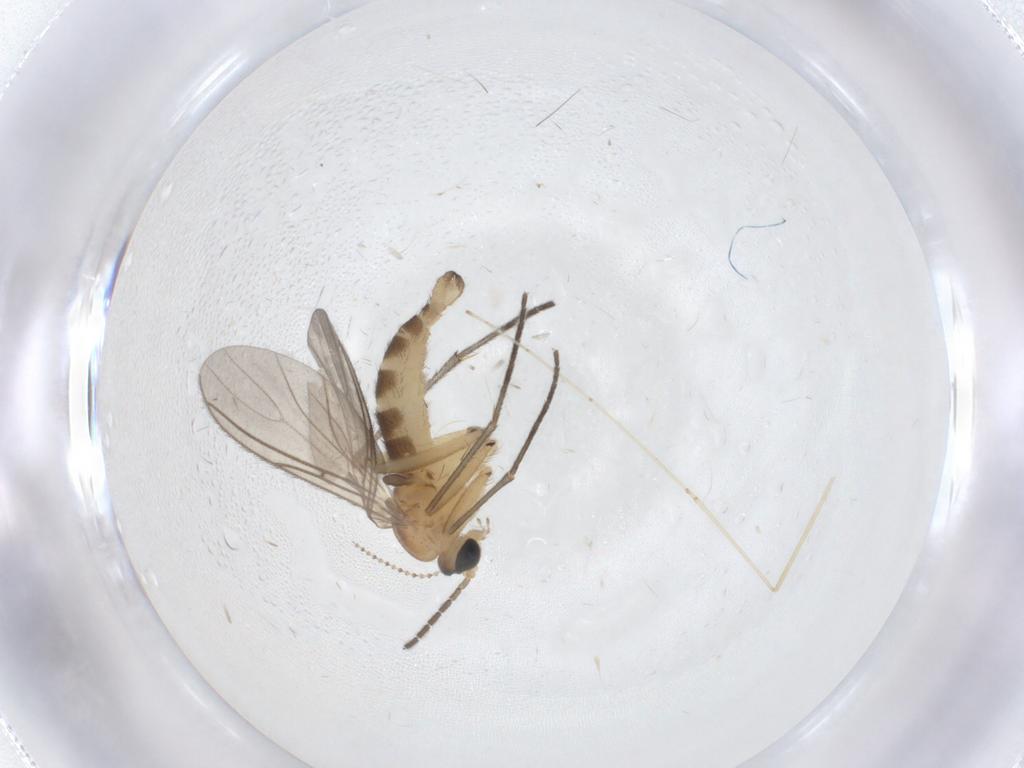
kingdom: Animalia
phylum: Arthropoda
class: Insecta
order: Diptera
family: Sciaridae
